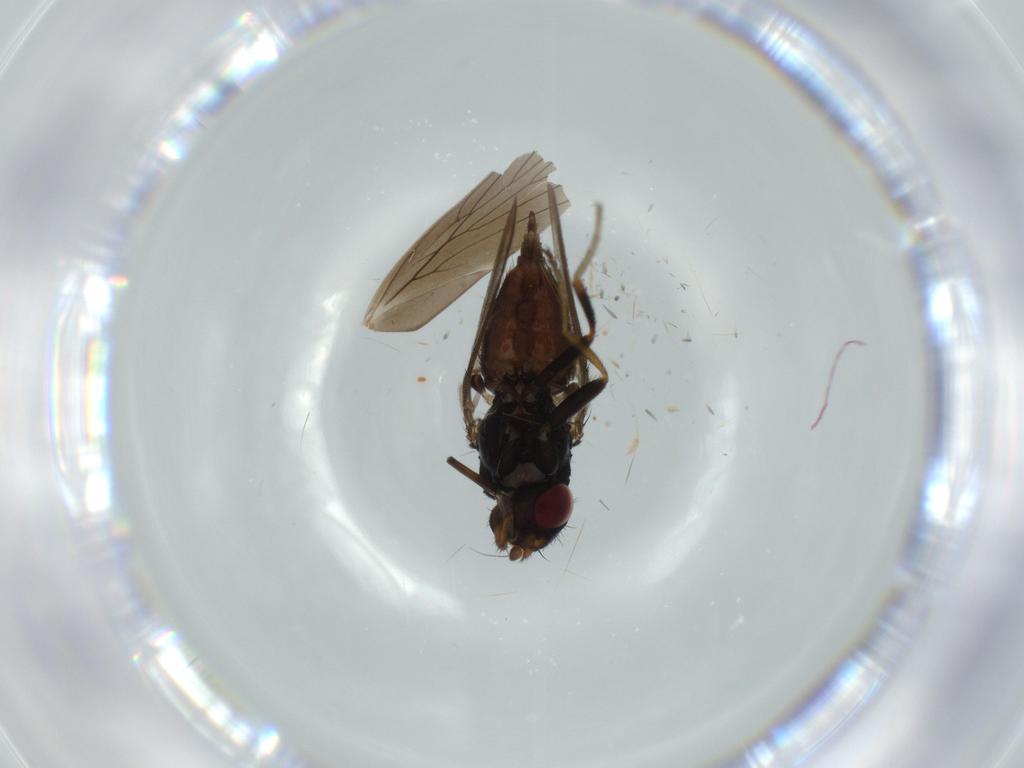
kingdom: Animalia
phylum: Arthropoda
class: Insecta
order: Diptera
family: Milichiidae
